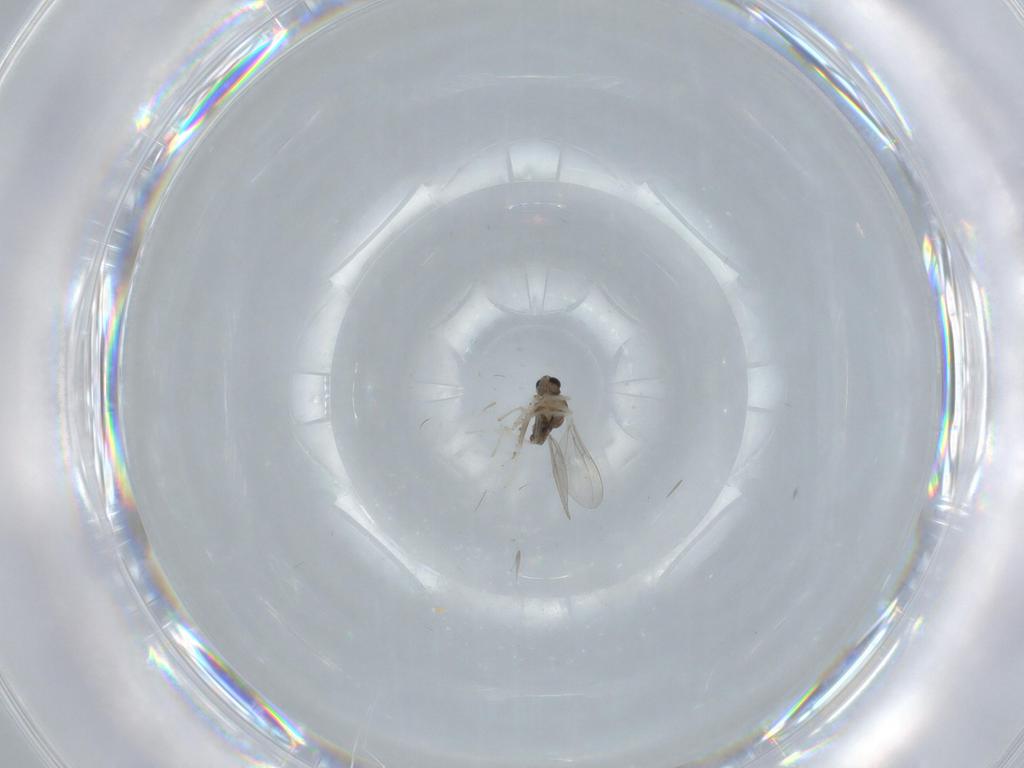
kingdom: Animalia
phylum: Arthropoda
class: Insecta
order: Diptera
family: Cecidomyiidae
